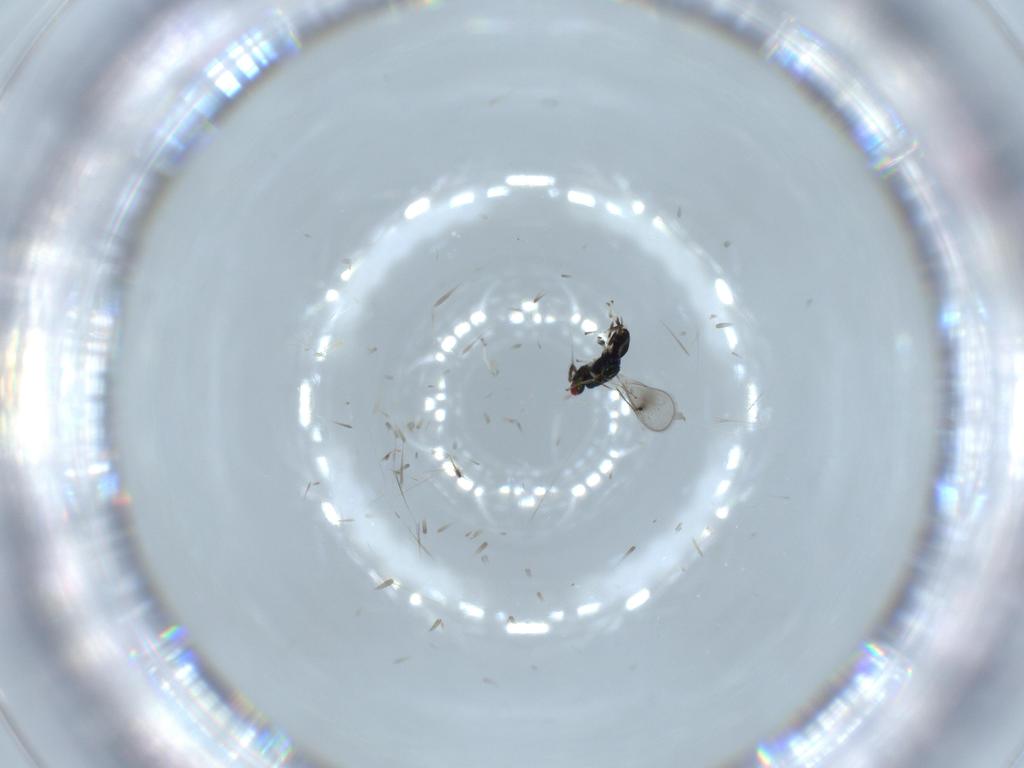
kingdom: Animalia
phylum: Arthropoda
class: Insecta
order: Hymenoptera
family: Eulophidae
